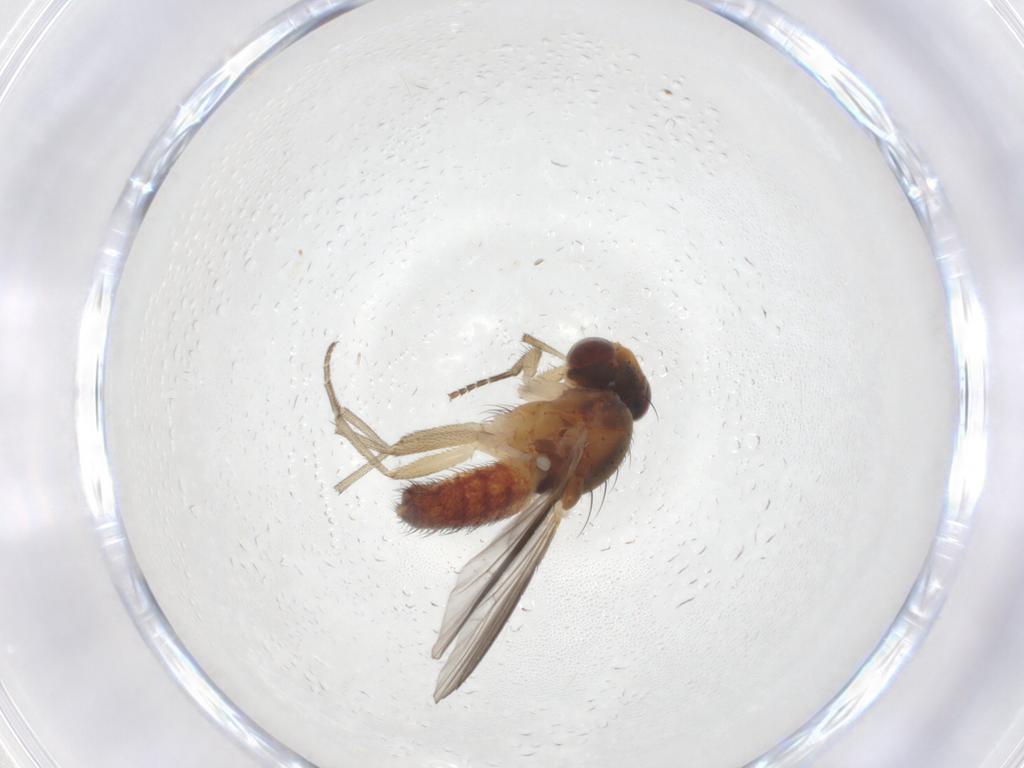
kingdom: Animalia
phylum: Arthropoda
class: Insecta
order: Diptera
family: Heleomyzidae
